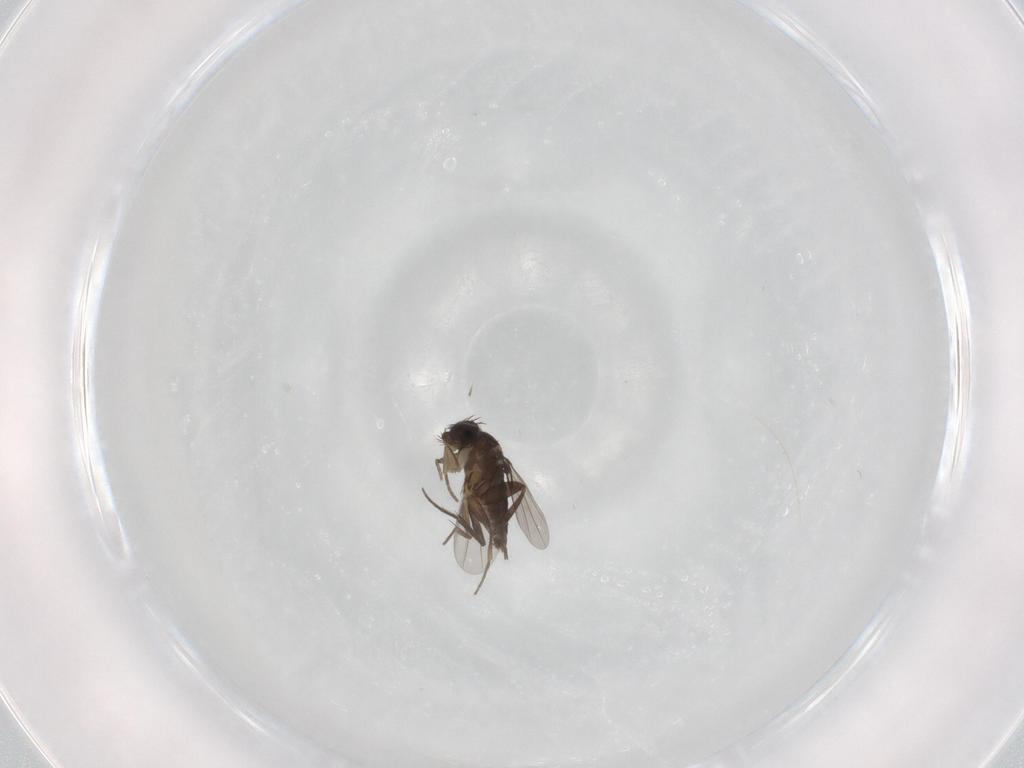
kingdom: Animalia
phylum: Arthropoda
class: Insecta
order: Diptera
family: Phoridae
